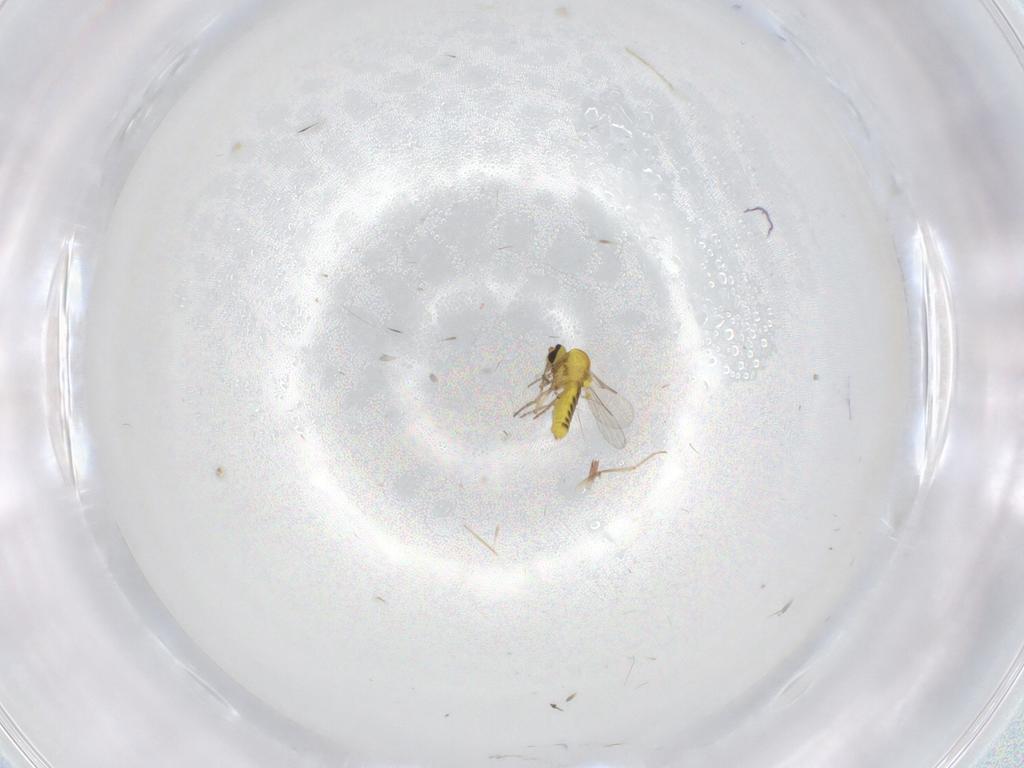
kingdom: Animalia
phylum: Arthropoda
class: Insecta
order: Diptera
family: Ceratopogonidae
